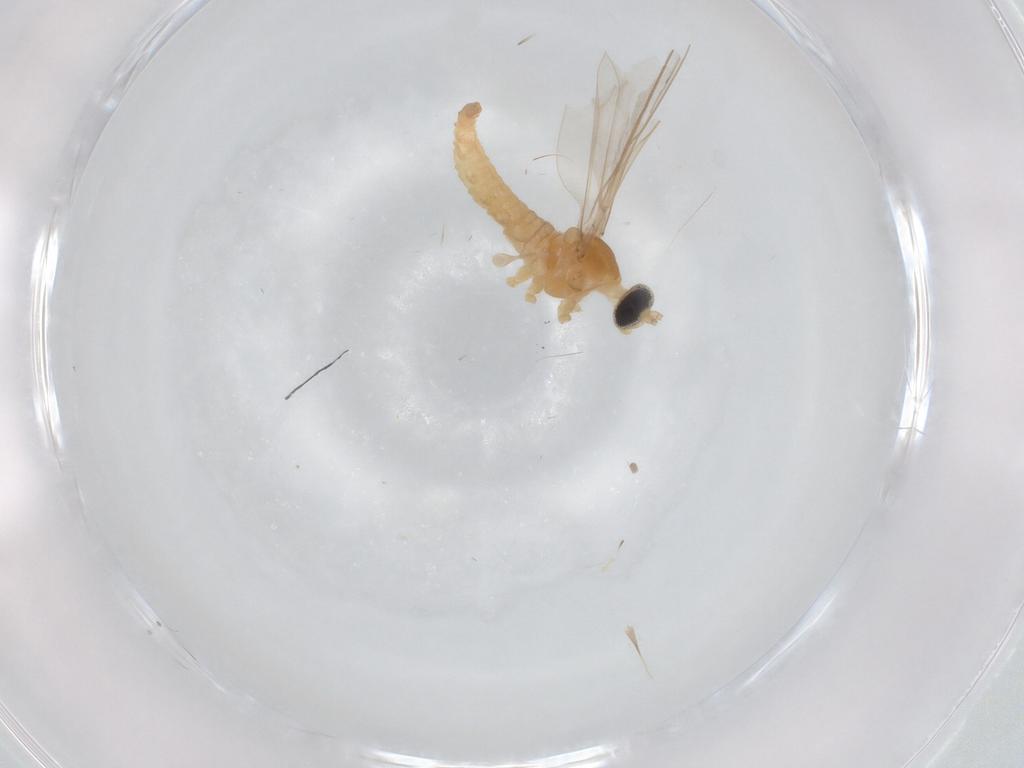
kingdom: Animalia
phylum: Arthropoda
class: Insecta
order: Diptera
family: Cecidomyiidae
